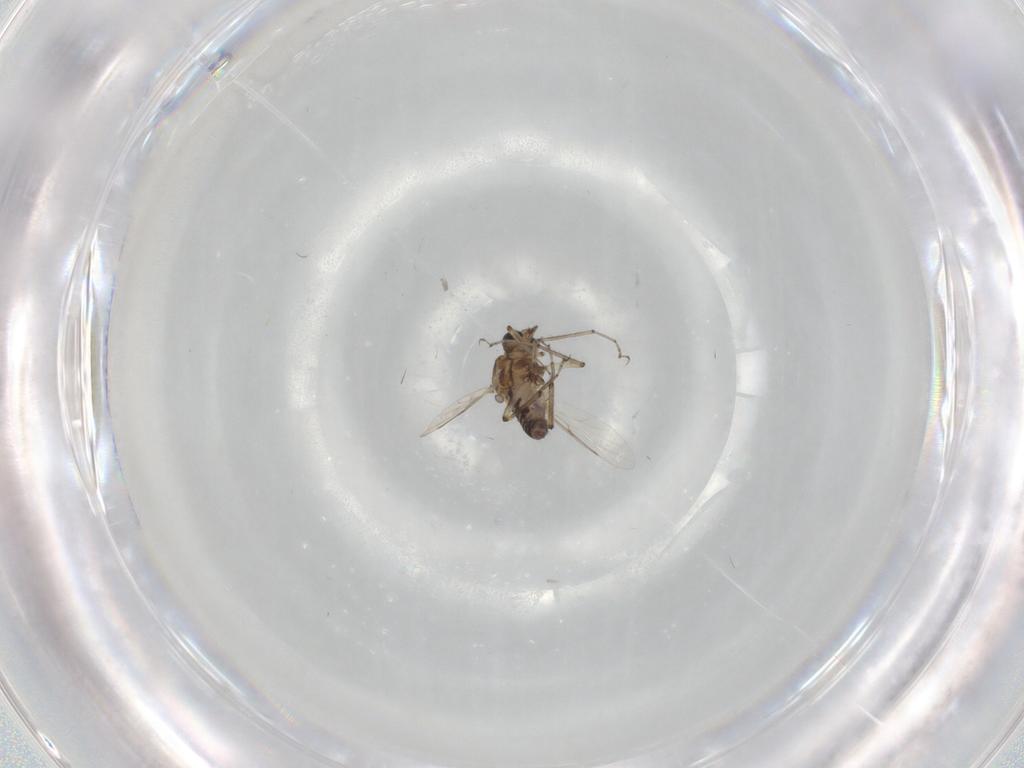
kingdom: Animalia
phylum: Arthropoda
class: Insecta
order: Diptera
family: Ceratopogonidae
